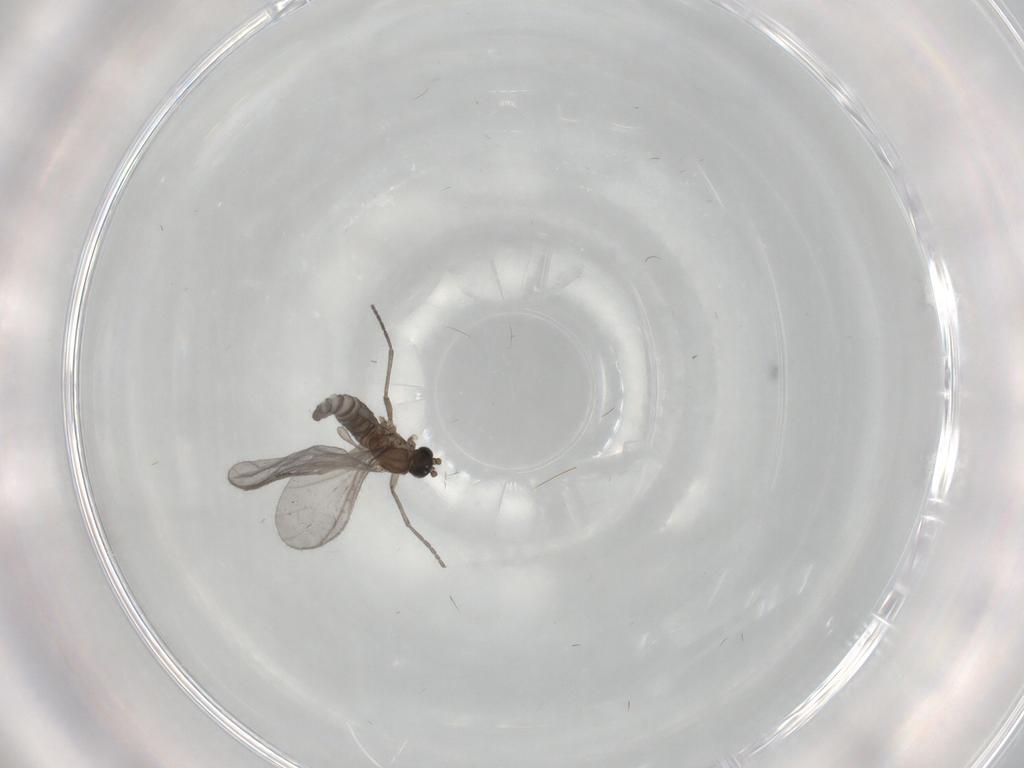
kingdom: Animalia
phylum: Arthropoda
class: Insecta
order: Diptera
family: Sciaridae
